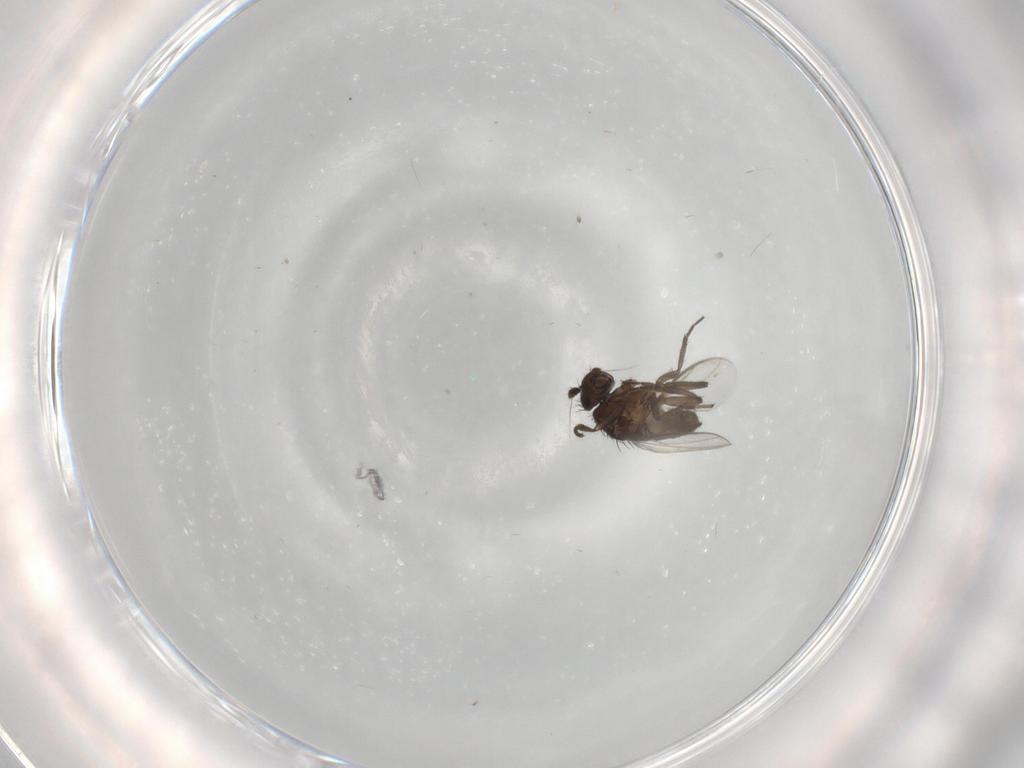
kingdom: Animalia
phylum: Arthropoda
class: Insecta
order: Diptera
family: Sphaeroceridae
